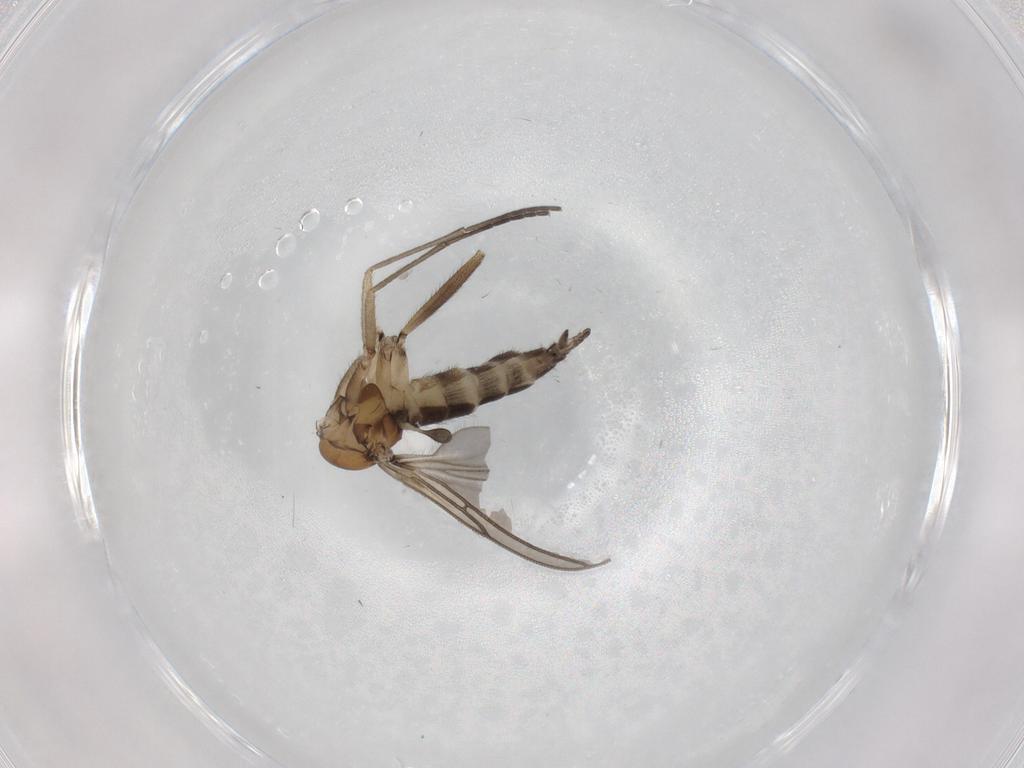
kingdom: Animalia
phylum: Arthropoda
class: Insecta
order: Diptera
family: Sciaridae
